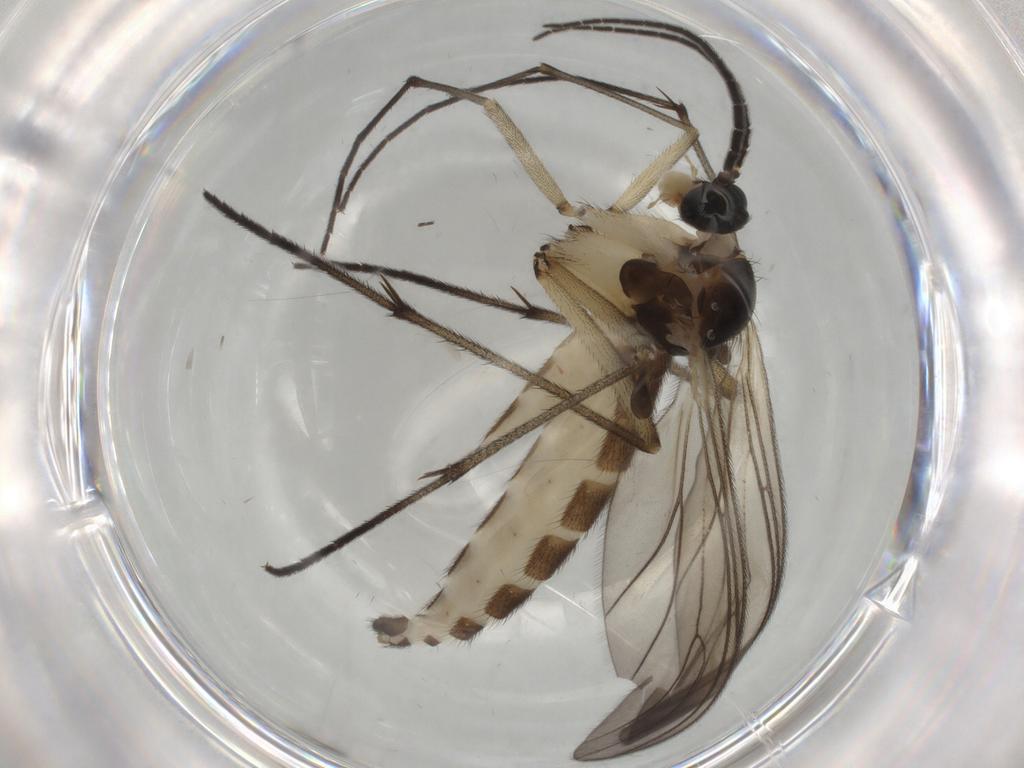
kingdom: Animalia
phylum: Arthropoda
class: Insecta
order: Diptera
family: Sciaridae
